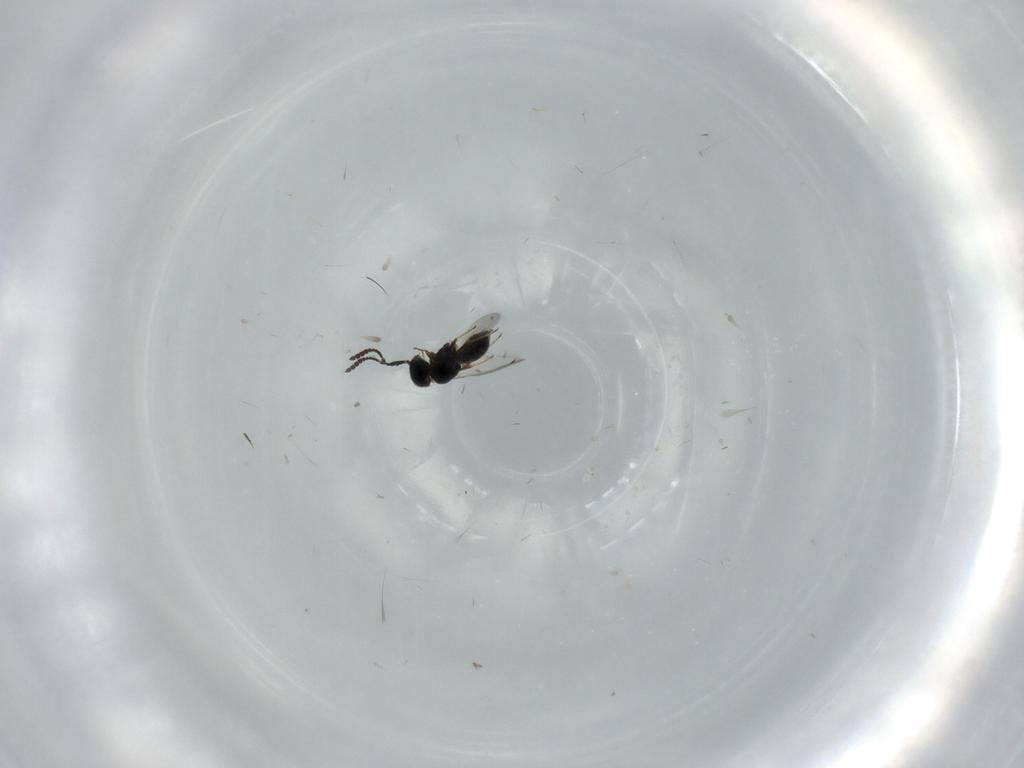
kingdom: Animalia
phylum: Arthropoda
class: Insecta
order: Hymenoptera
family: Scelionidae
